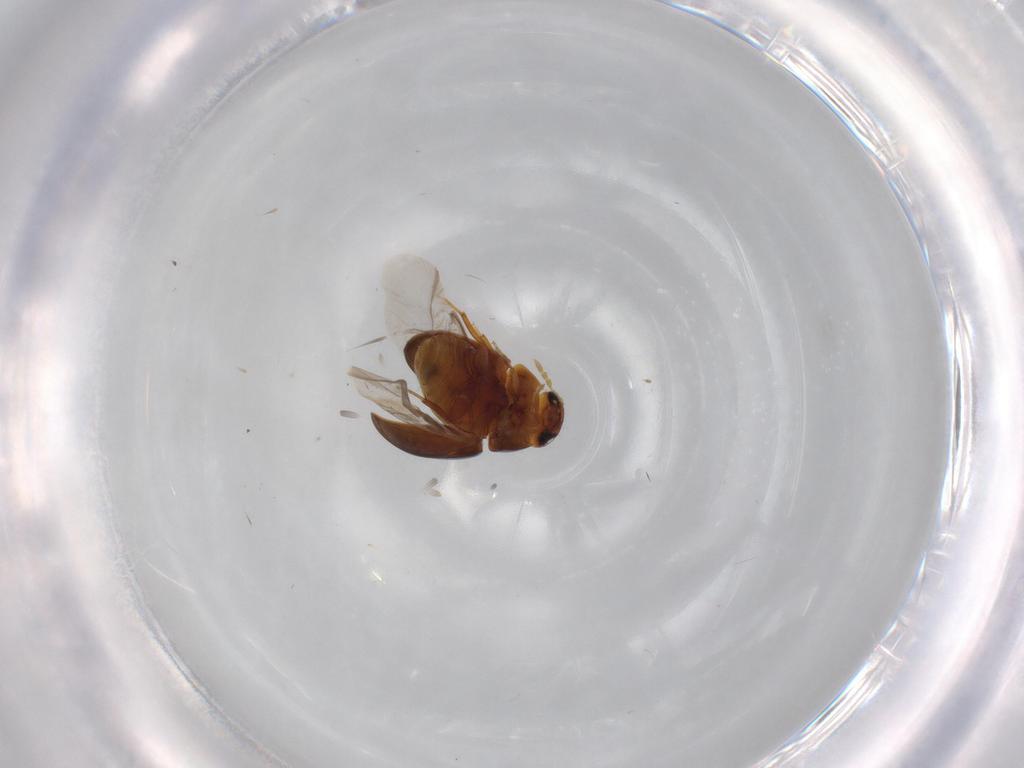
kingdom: Animalia
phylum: Arthropoda
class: Insecta
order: Coleoptera
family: Phalacridae
